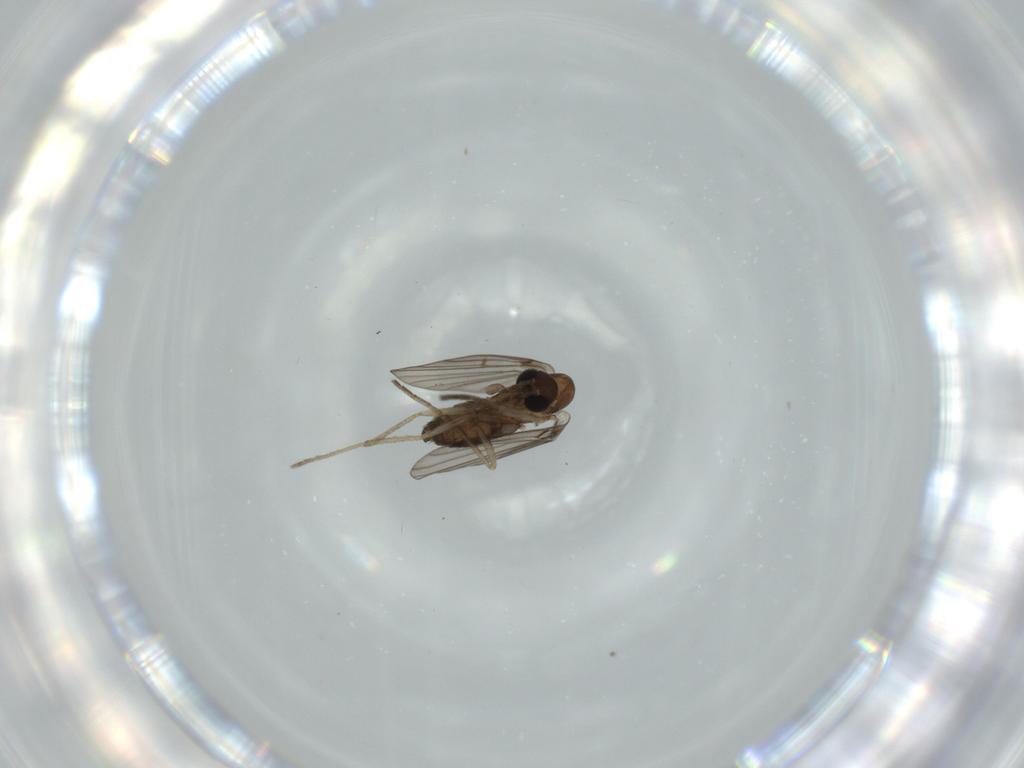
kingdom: Animalia
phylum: Arthropoda
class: Insecta
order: Diptera
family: Psychodidae
